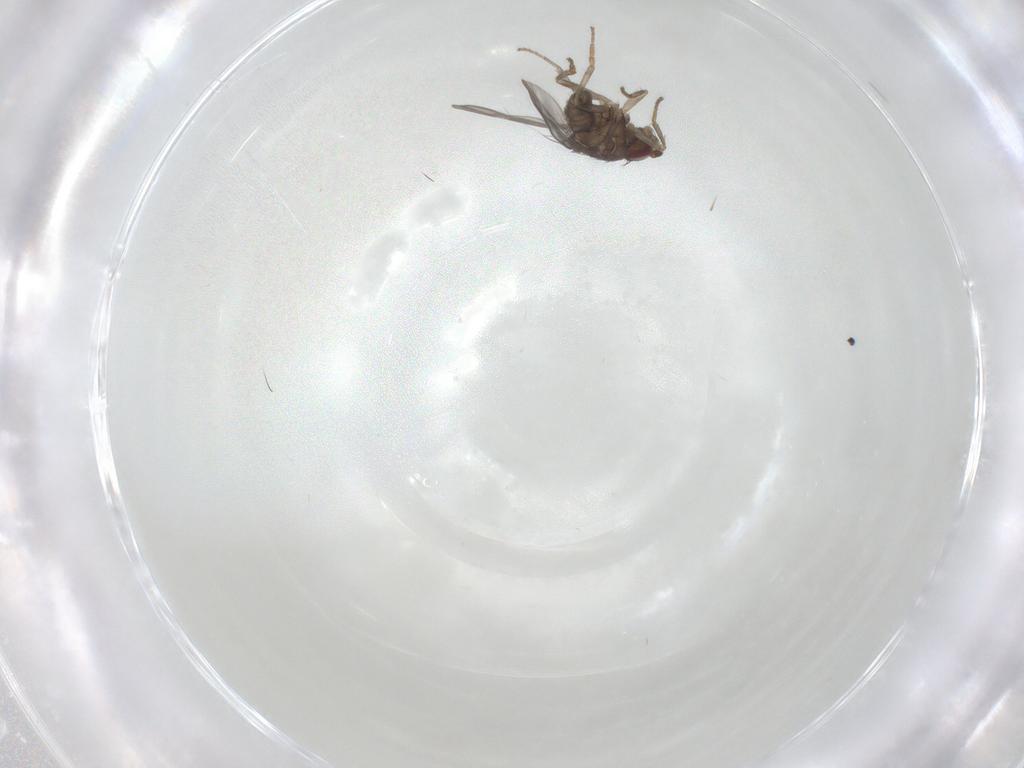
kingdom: Animalia
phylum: Arthropoda
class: Insecta
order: Diptera
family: Sphaeroceridae
